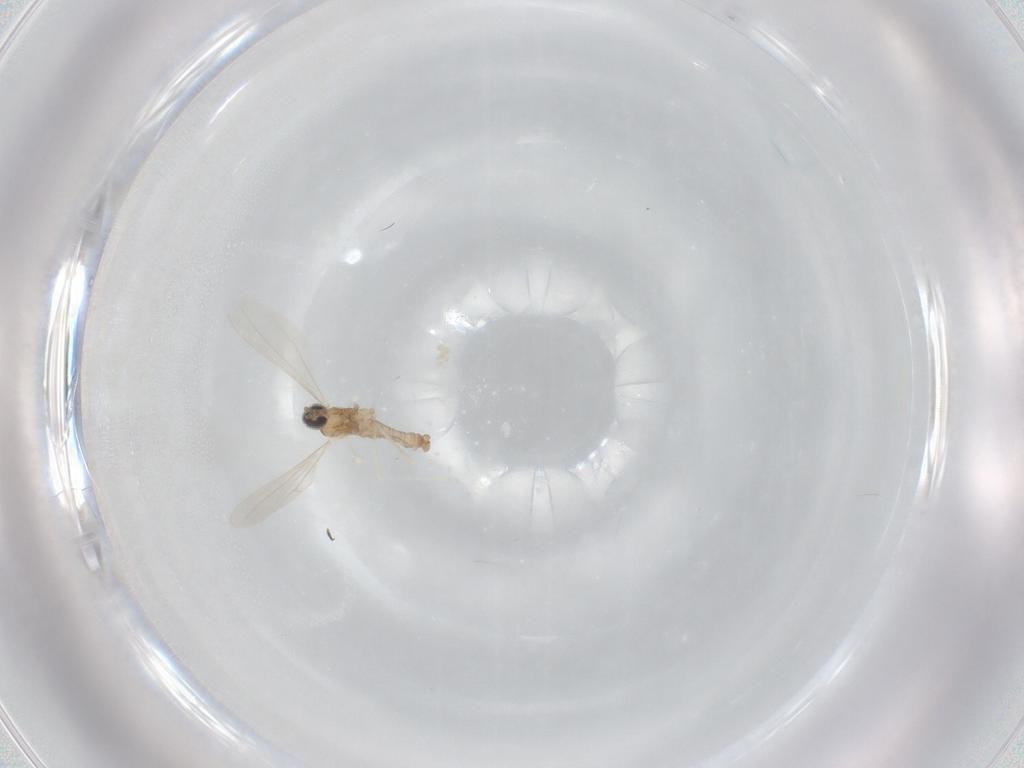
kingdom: Animalia
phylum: Arthropoda
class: Insecta
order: Diptera
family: Cecidomyiidae
